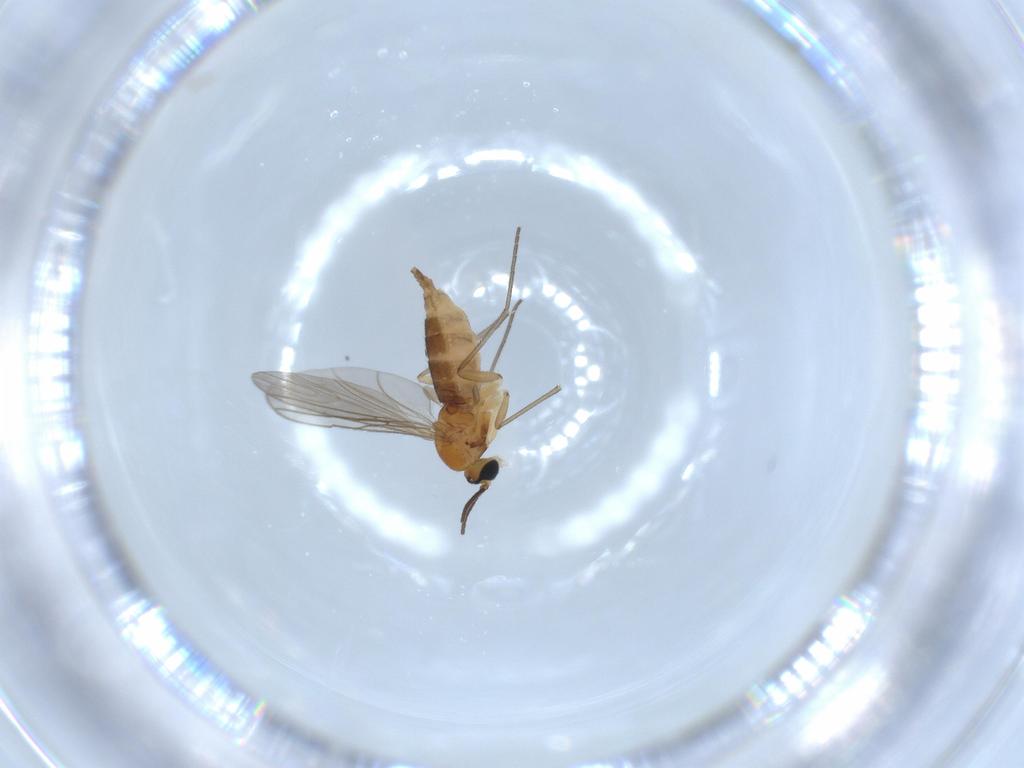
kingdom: Animalia
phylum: Arthropoda
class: Insecta
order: Diptera
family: Sciaridae
